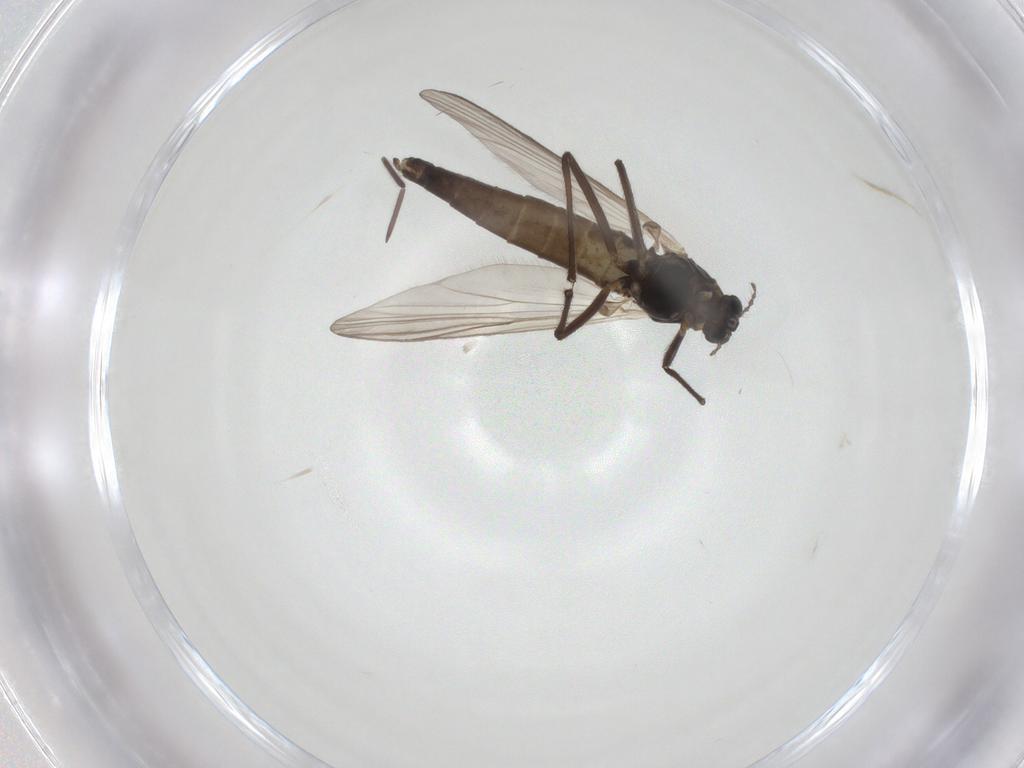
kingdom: Animalia
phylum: Arthropoda
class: Insecta
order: Diptera
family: Chironomidae
